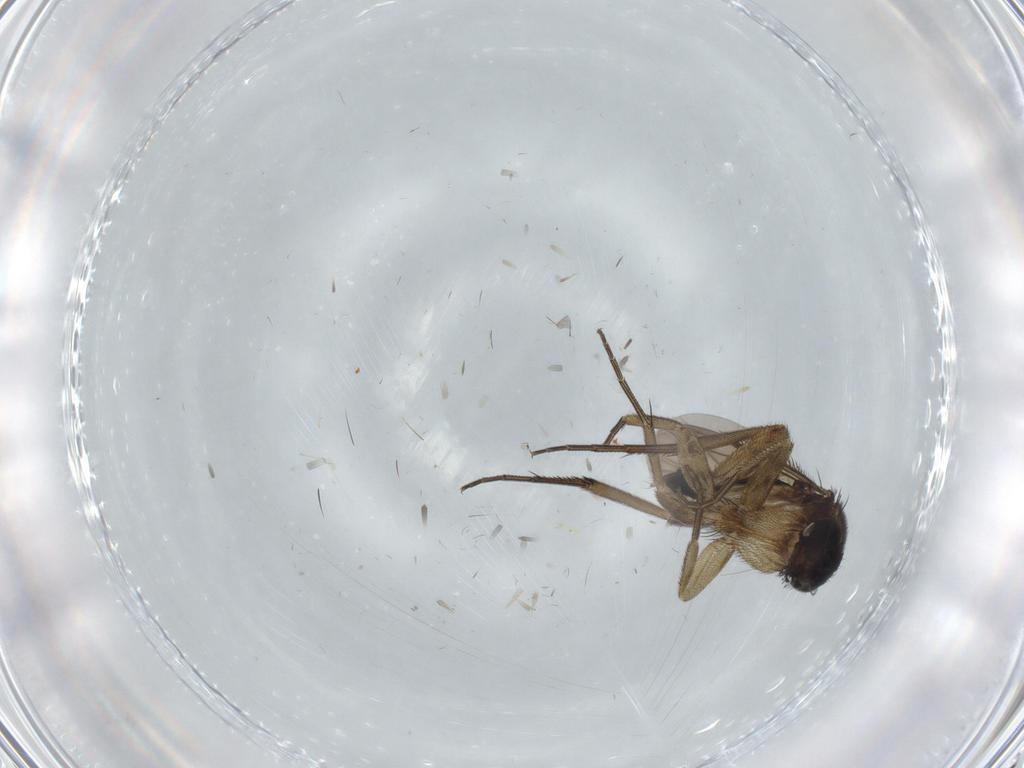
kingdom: Animalia
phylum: Arthropoda
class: Insecta
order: Diptera
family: Phoridae
